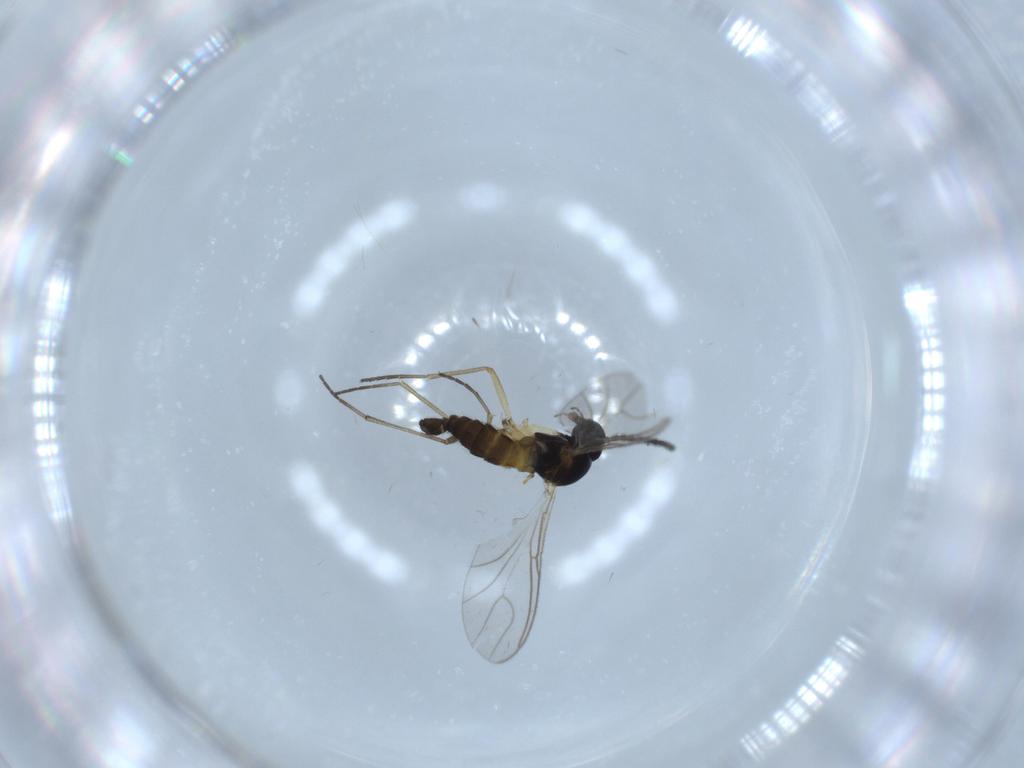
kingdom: Animalia
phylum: Arthropoda
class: Insecta
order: Diptera
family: Sciaridae
